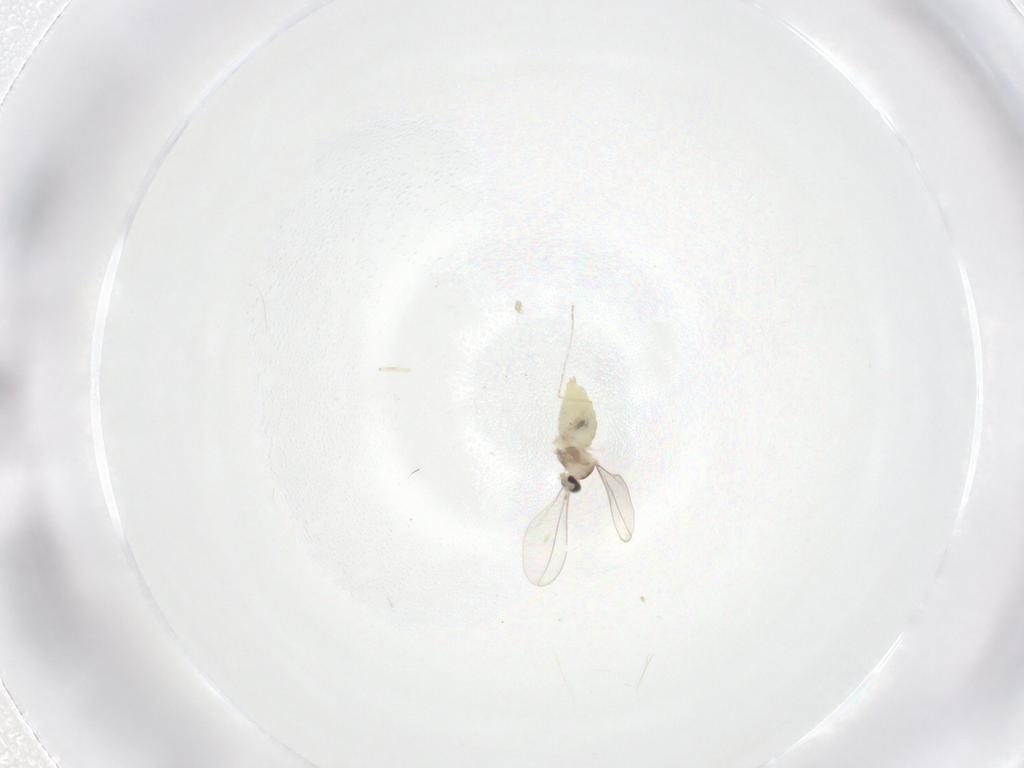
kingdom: Animalia
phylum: Arthropoda
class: Insecta
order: Diptera
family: Cecidomyiidae
